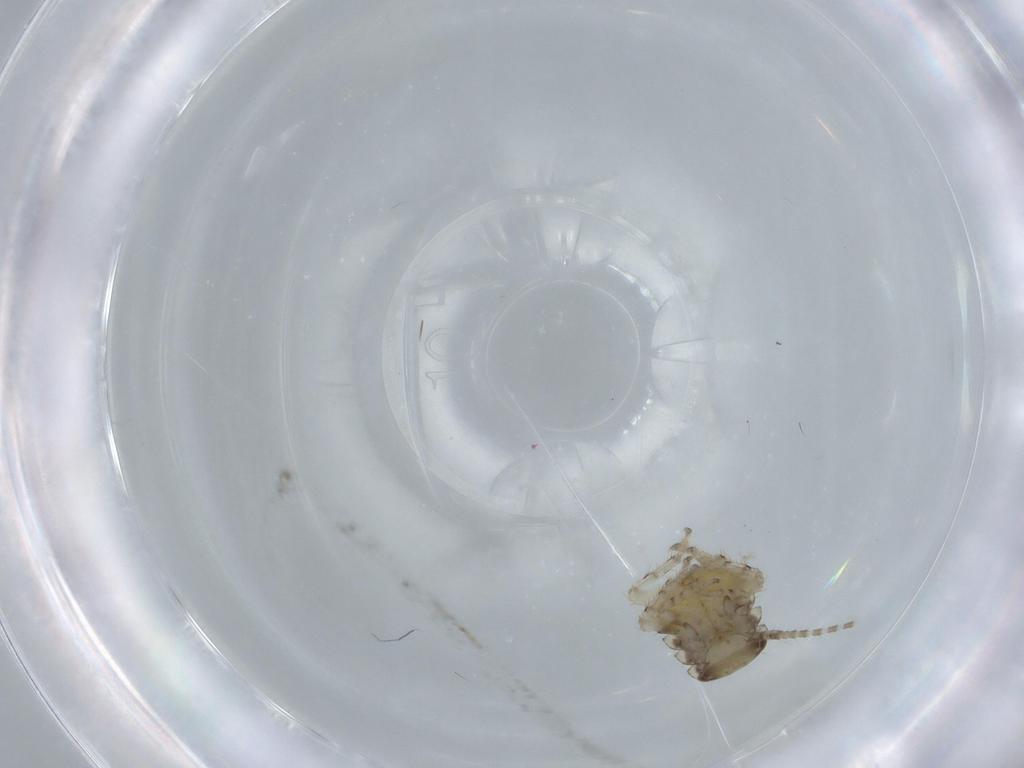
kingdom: Animalia
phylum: Arthropoda
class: Insecta
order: Blattodea
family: Ectobiidae
